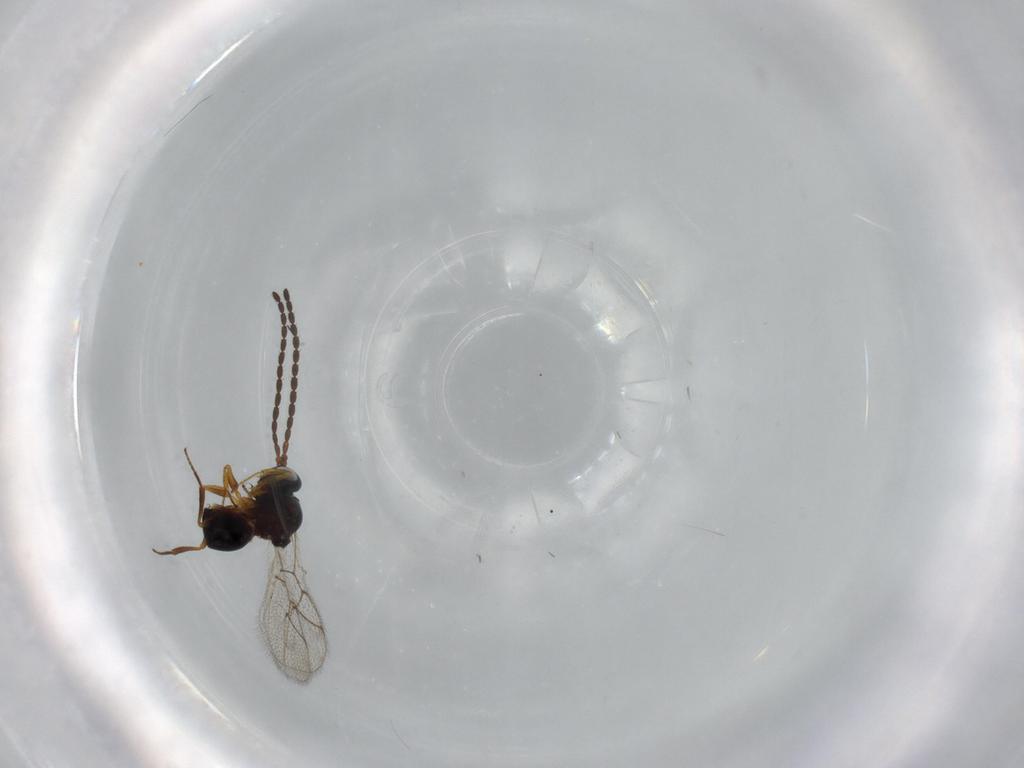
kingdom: Animalia
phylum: Arthropoda
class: Insecta
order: Hymenoptera
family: Figitidae
